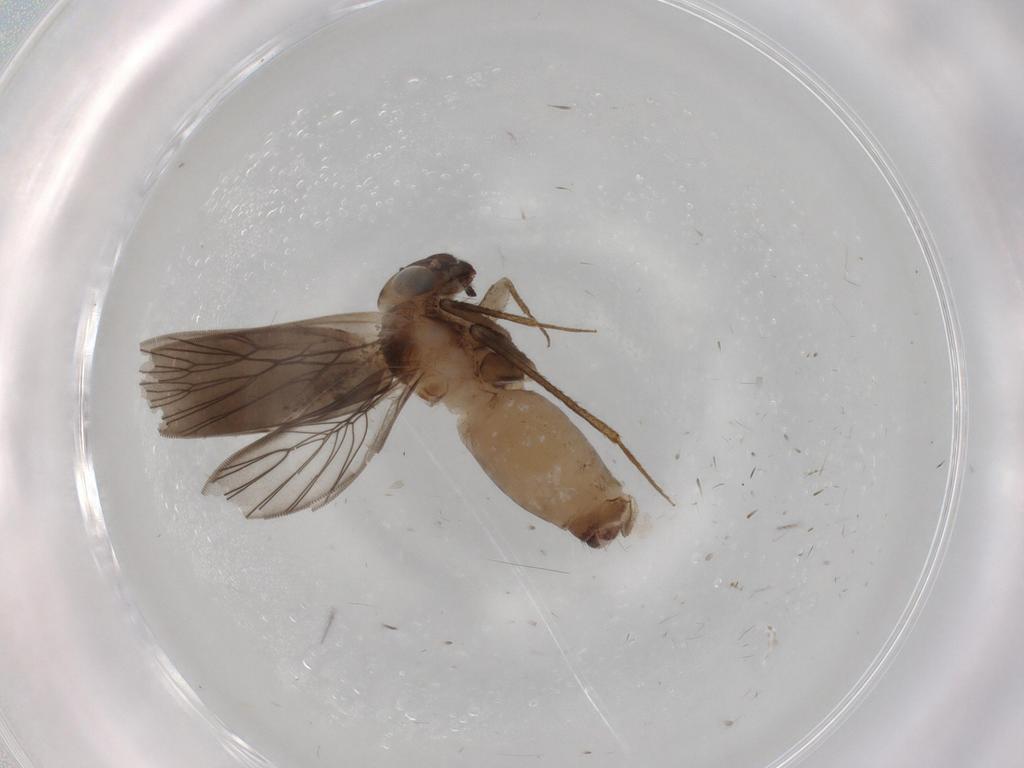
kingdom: Animalia
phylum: Arthropoda
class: Insecta
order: Psocodea
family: Lepidopsocidae
